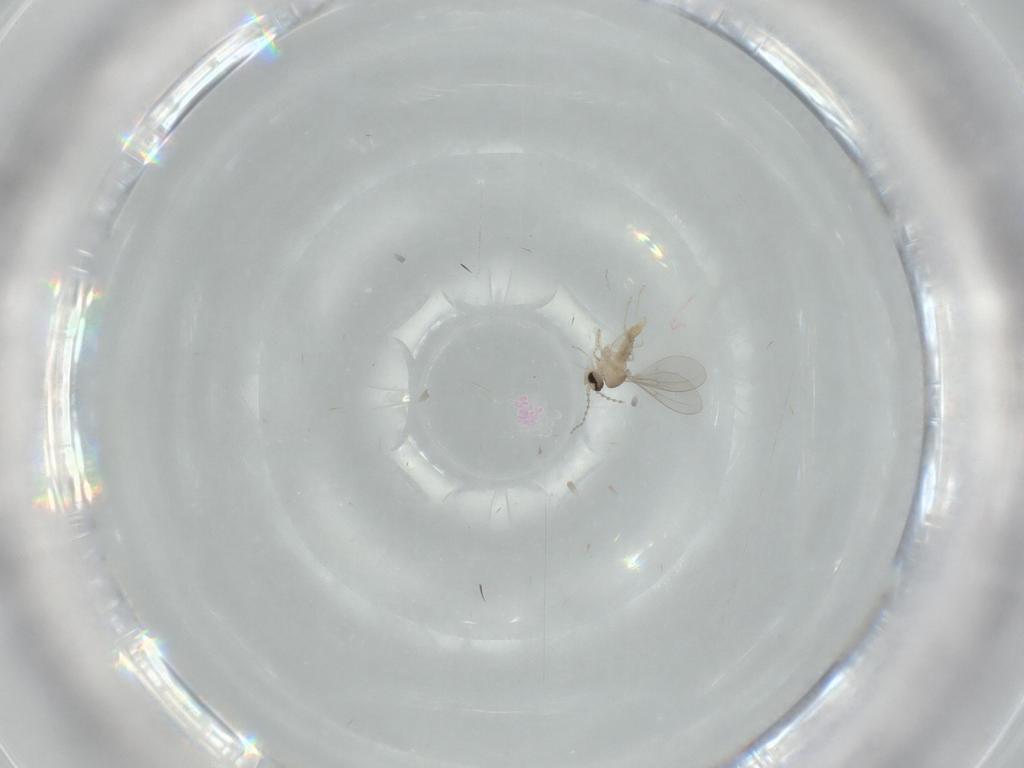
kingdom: Animalia
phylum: Arthropoda
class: Insecta
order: Diptera
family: Cecidomyiidae
